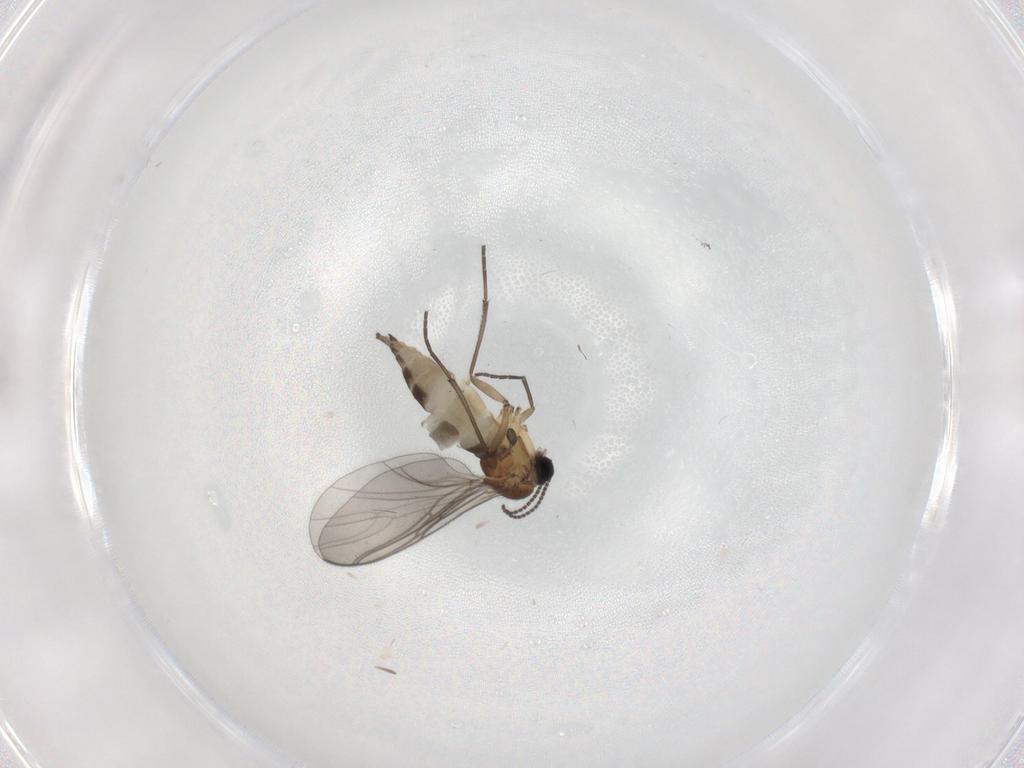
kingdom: Animalia
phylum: Arthropoda
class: Insecta
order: Diptera
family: Sciaridae
